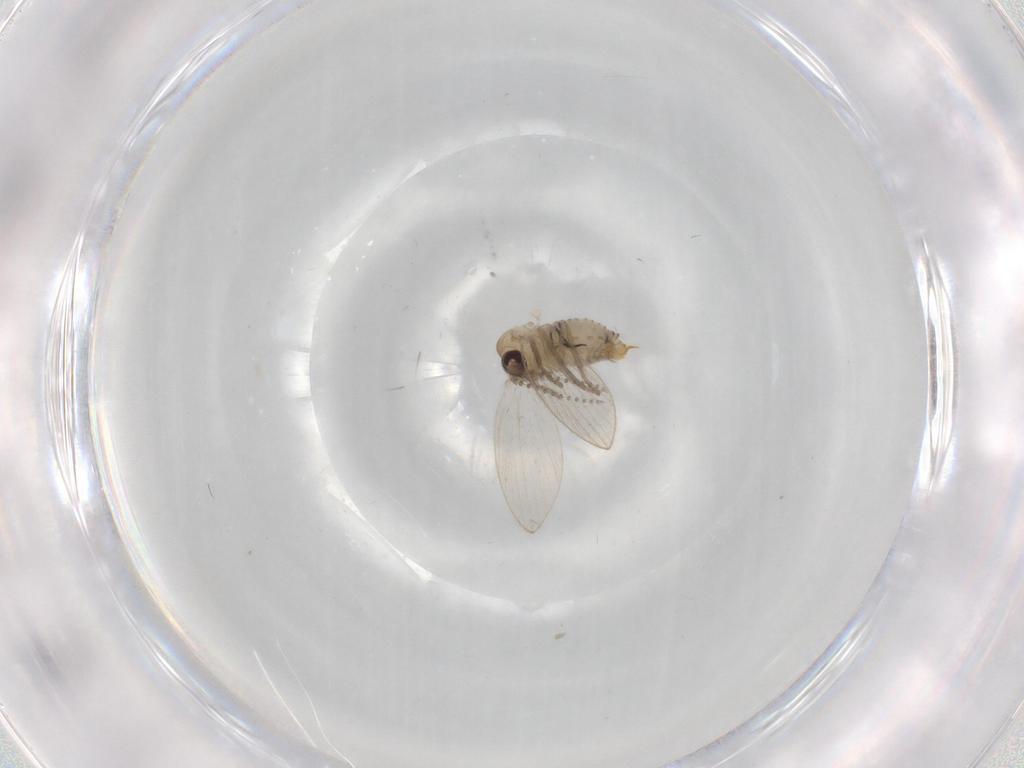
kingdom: Animalia
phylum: Arthropoda
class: Insecta
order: Diptera
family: Psychodidae
